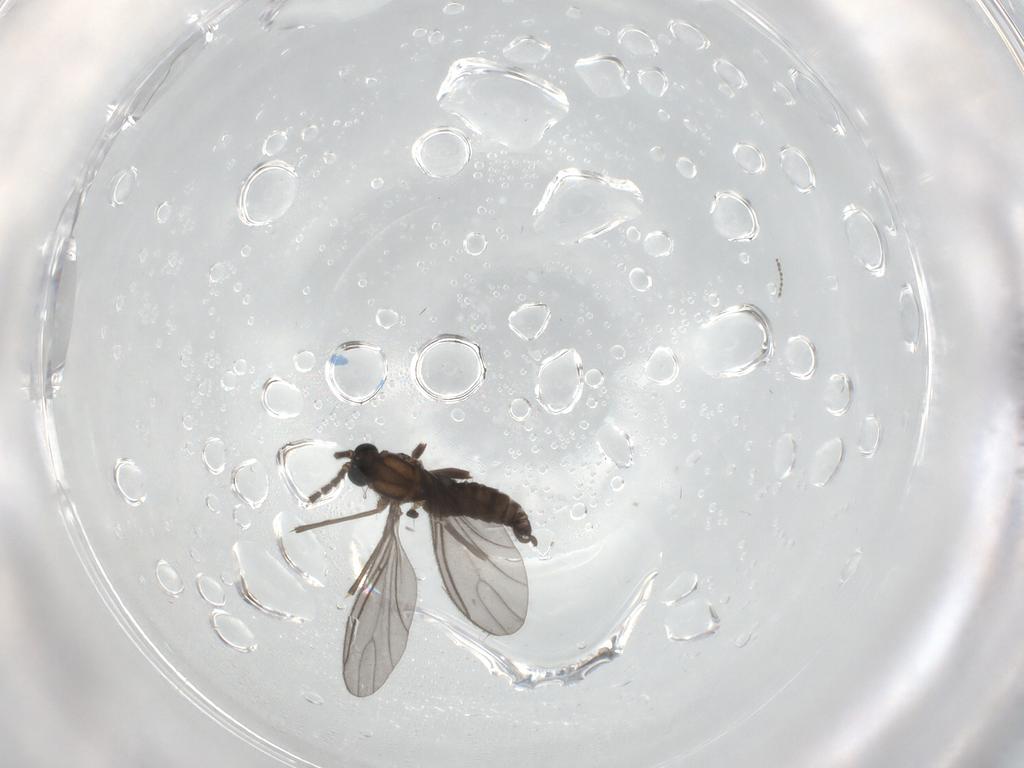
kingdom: Animalia
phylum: Arthropoda
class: Insecta
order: Diptera
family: Sciaridae
